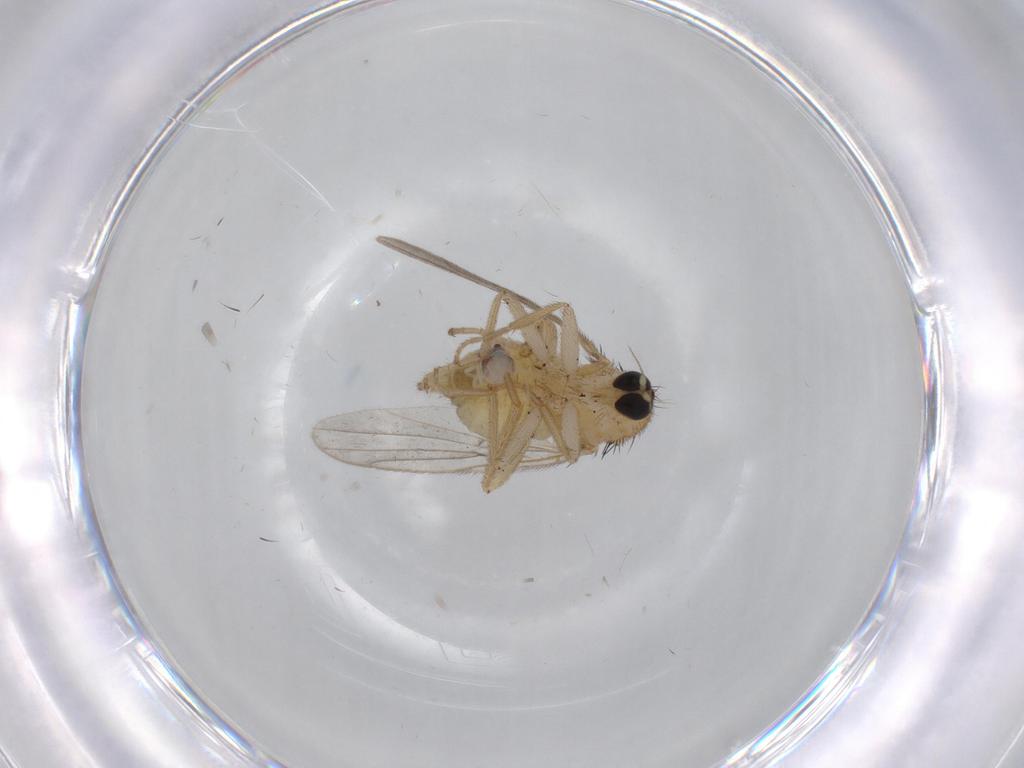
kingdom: Animalia
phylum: Arthropoda
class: Insecta
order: Diptera
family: Hybotidae
